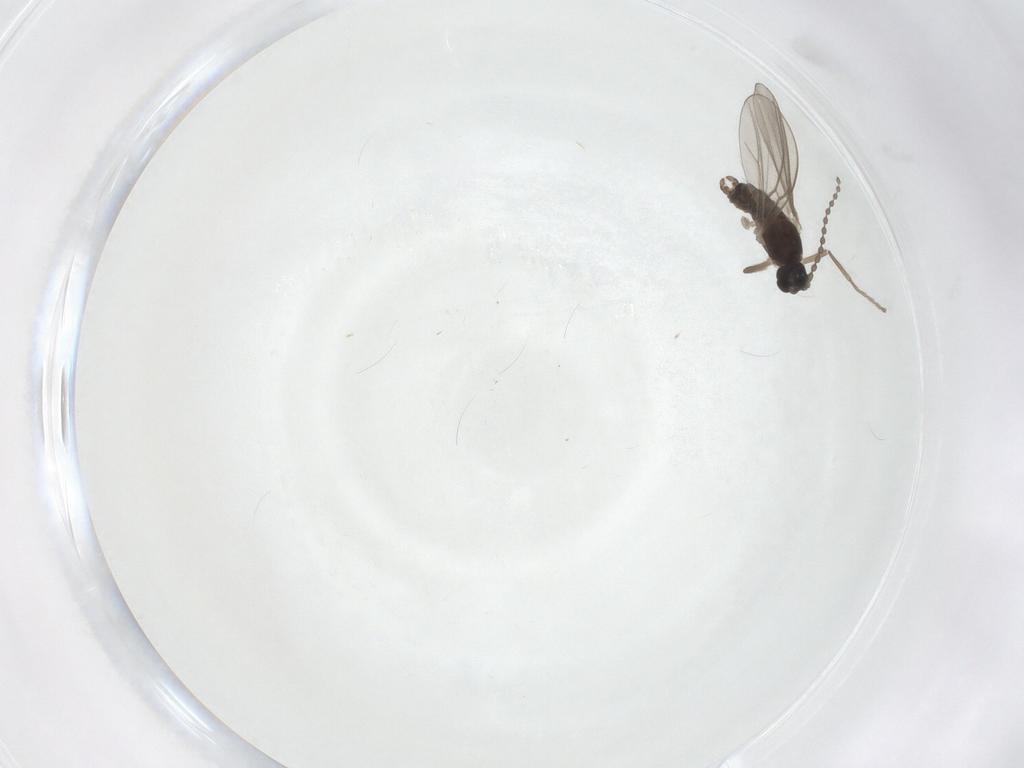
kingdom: Animalia
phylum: Arthropoda
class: Insecta
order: Diptera
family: Cecidomyiidae
